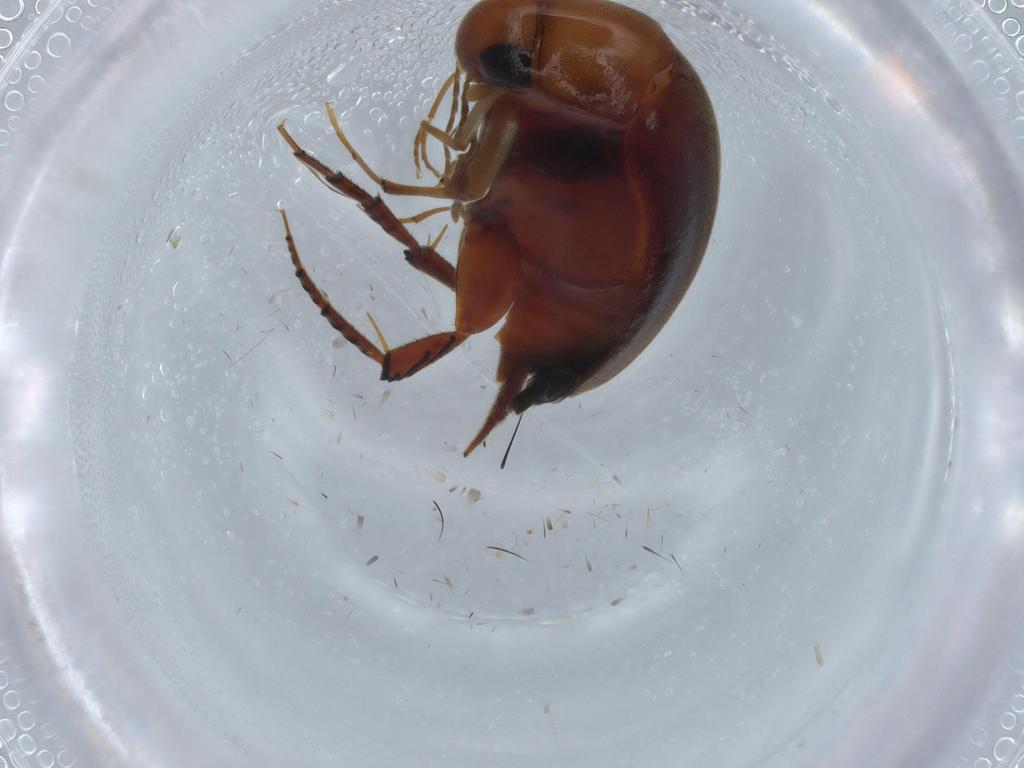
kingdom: Animalia
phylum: Arthropoda
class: Insecta
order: Coleoptera
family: Mordellidae
